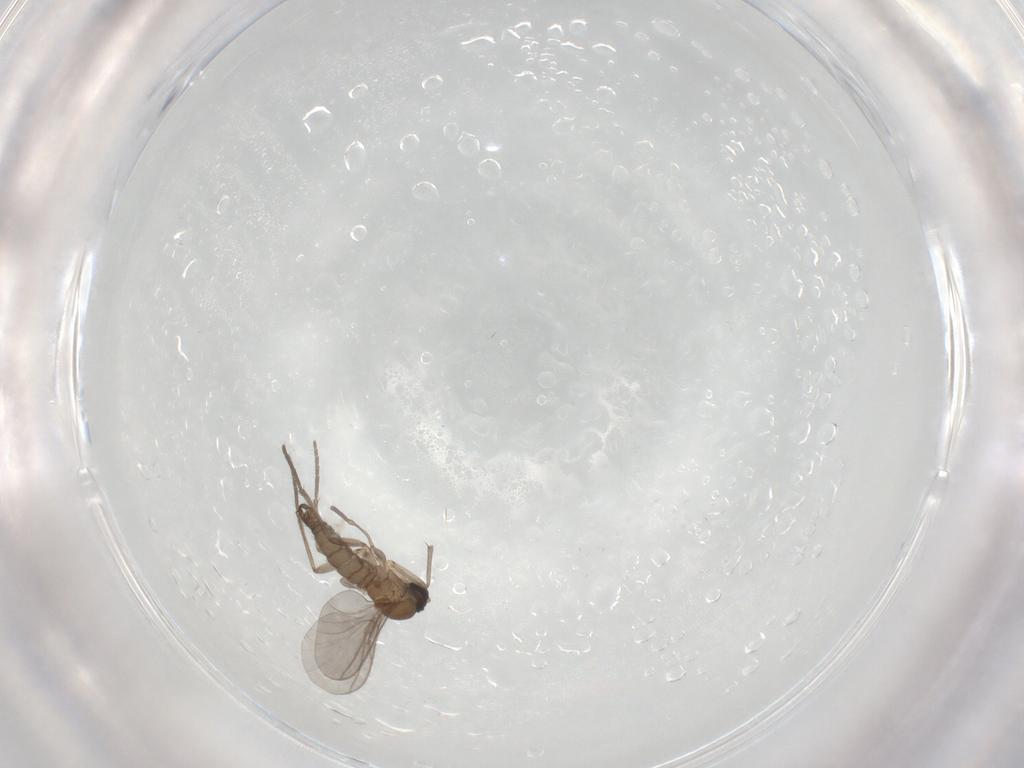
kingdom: Animalia
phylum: Arthropoda
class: Insecta
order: Diptera
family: Sciaridae
